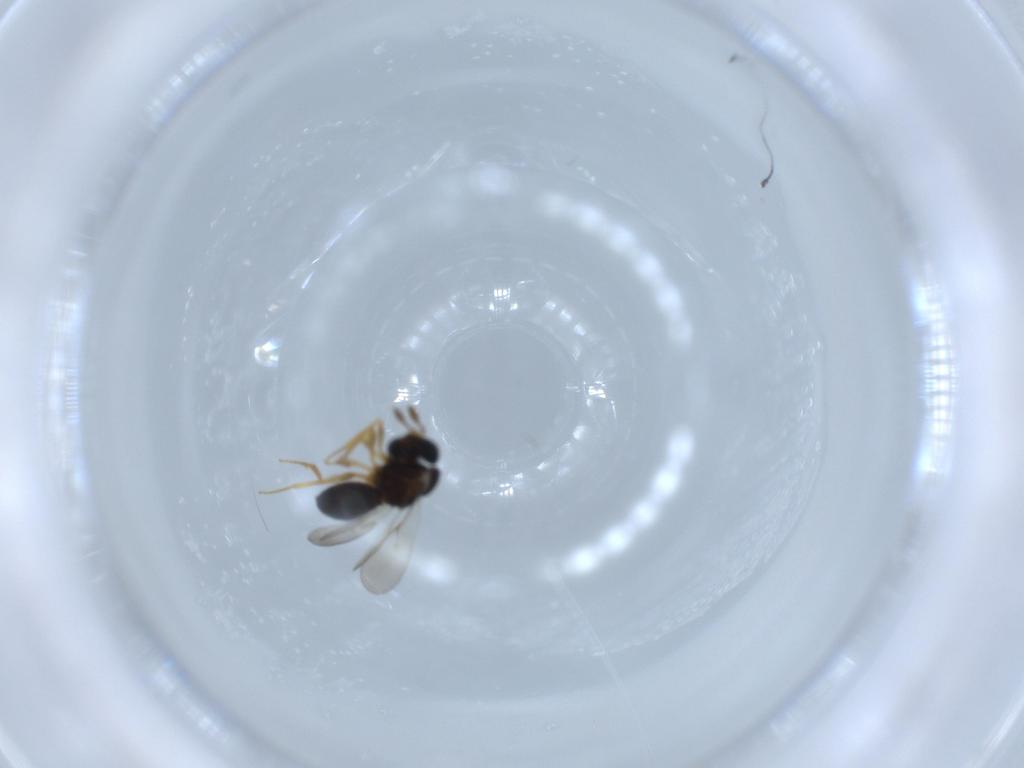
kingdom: Animalia
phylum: Arthropoda
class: Insecta
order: Hymenoptera
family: Scelionidae
